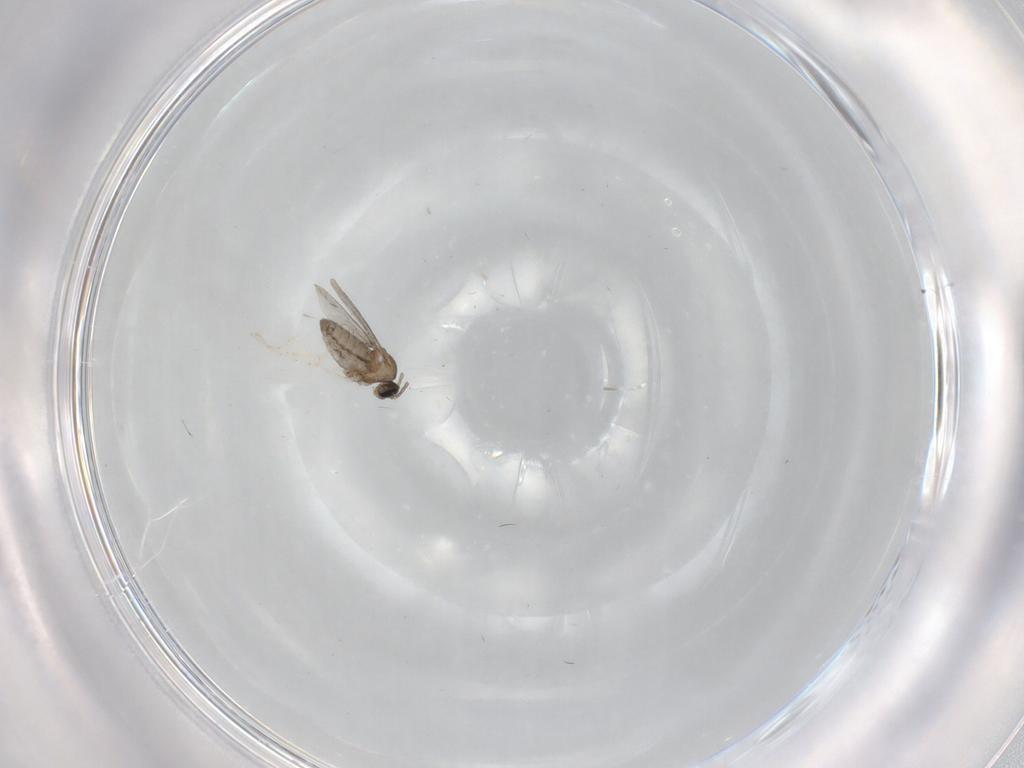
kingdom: Animalia
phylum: Arthropoda
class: Insecta
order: Diptera
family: Cecidomyiidae
